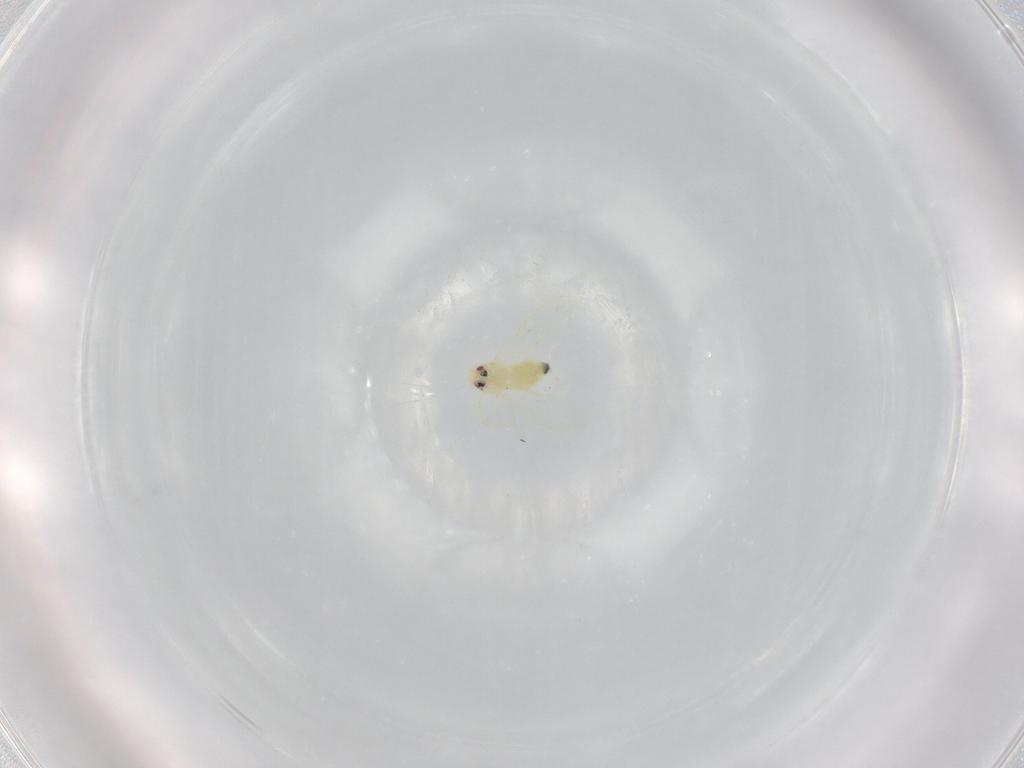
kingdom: Animalia
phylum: Arthropoda
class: Insecta
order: Hemiptera
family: Aleyrodidae
